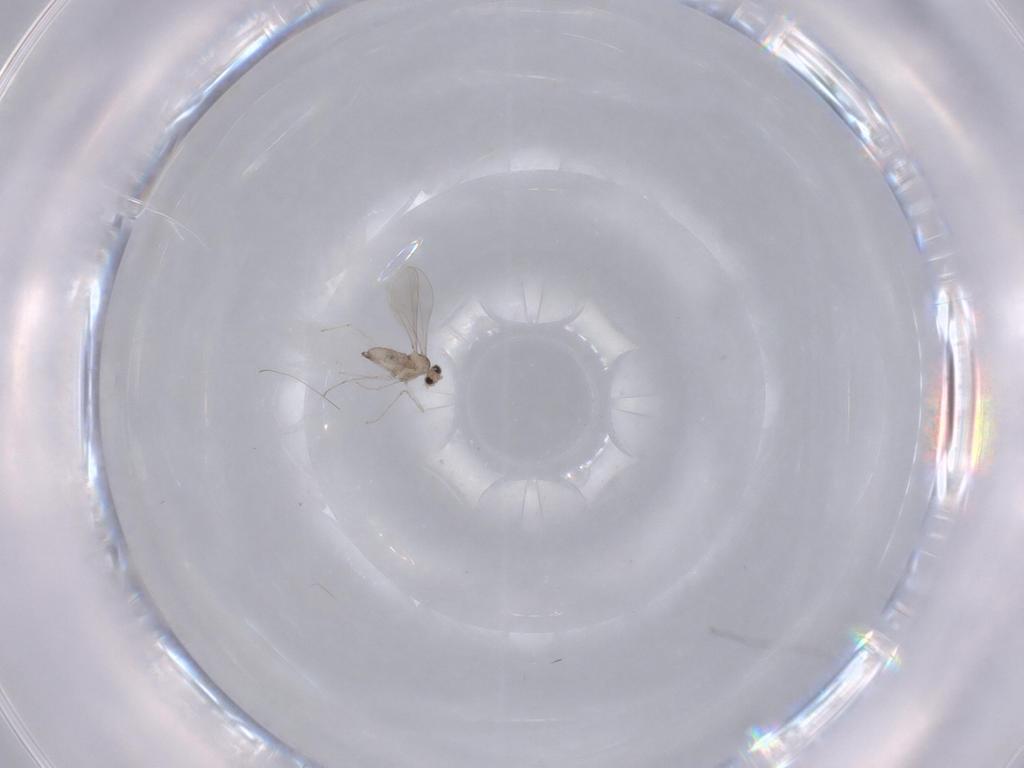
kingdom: Animalia
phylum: Arthropoda
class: Insecta
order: Diptera
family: Cecidomyiidae
